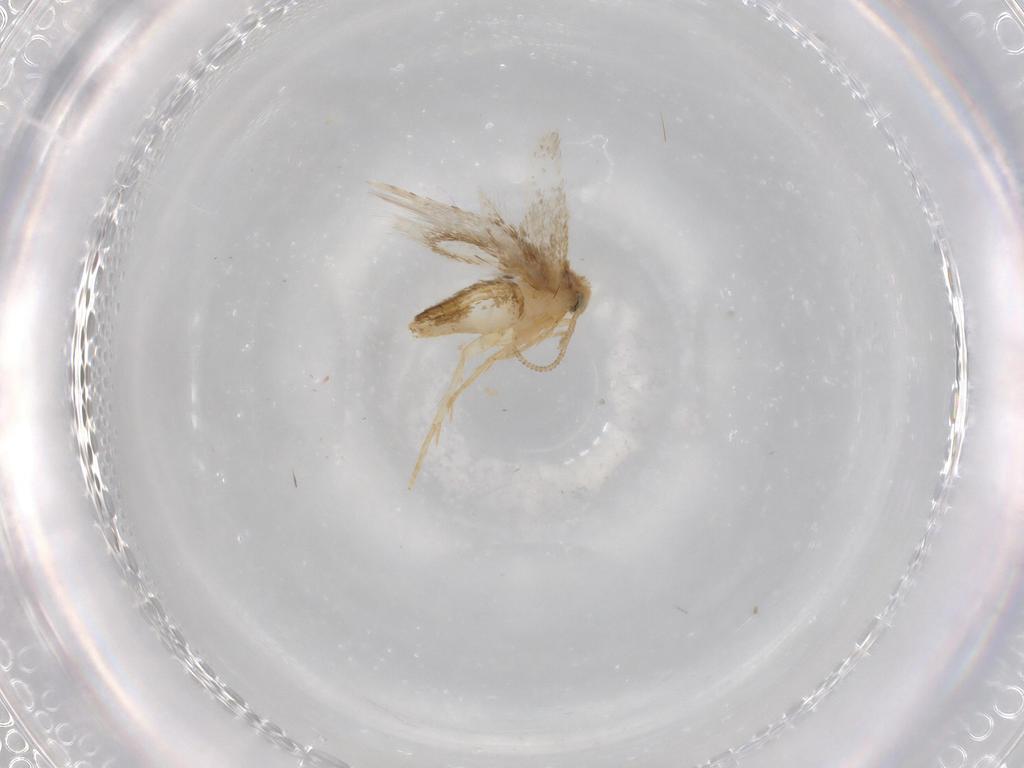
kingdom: Animalia
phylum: Arthropoda
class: Insecta
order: Lepidoptera
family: Nepticulidae
